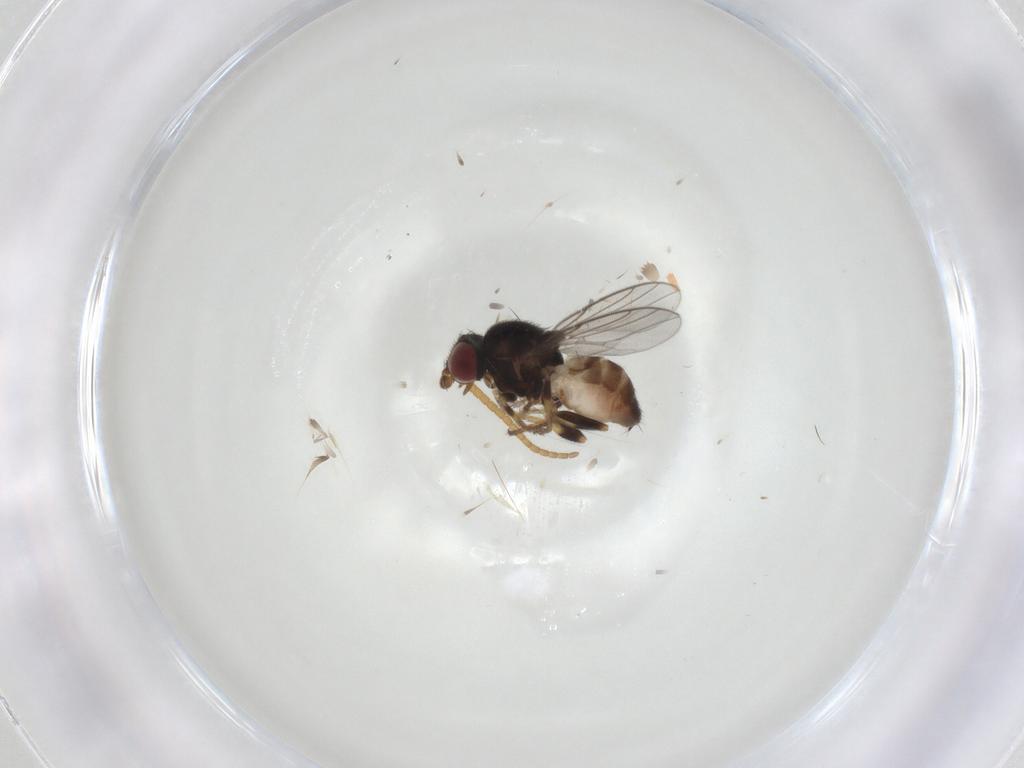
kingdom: Animalia
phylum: Arthropoda
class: Insecta
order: Diptera
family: Chloropidae
